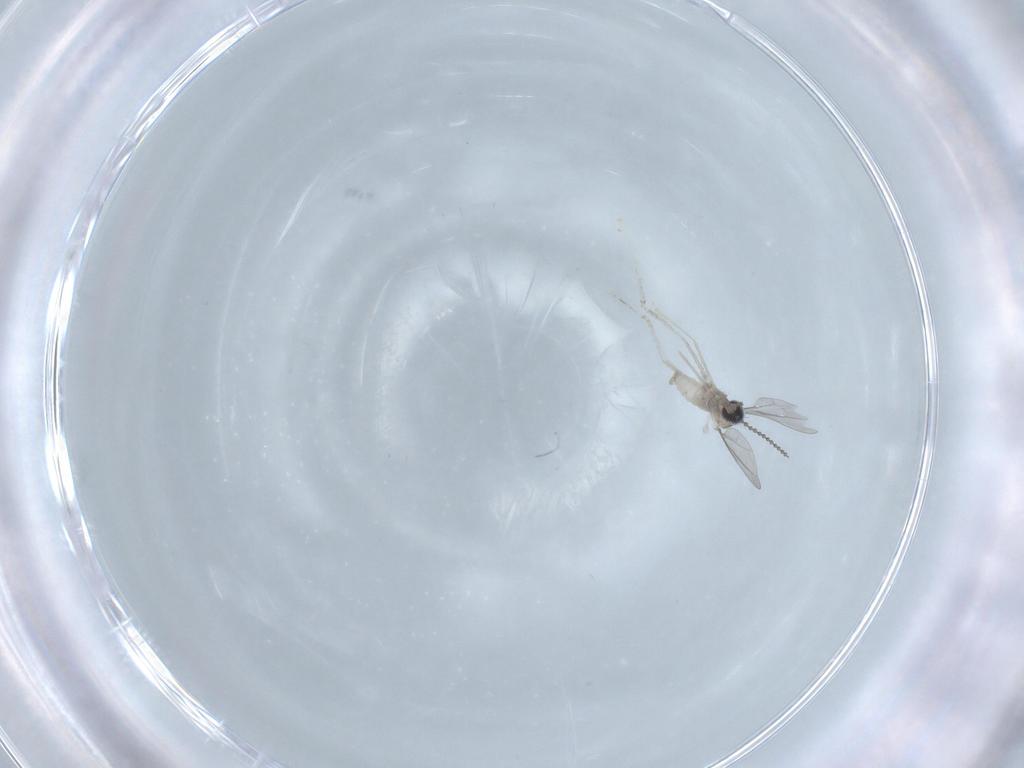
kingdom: Animalia
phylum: Arthropoda
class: Insecta
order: Diptera
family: Cecidomyiidae
